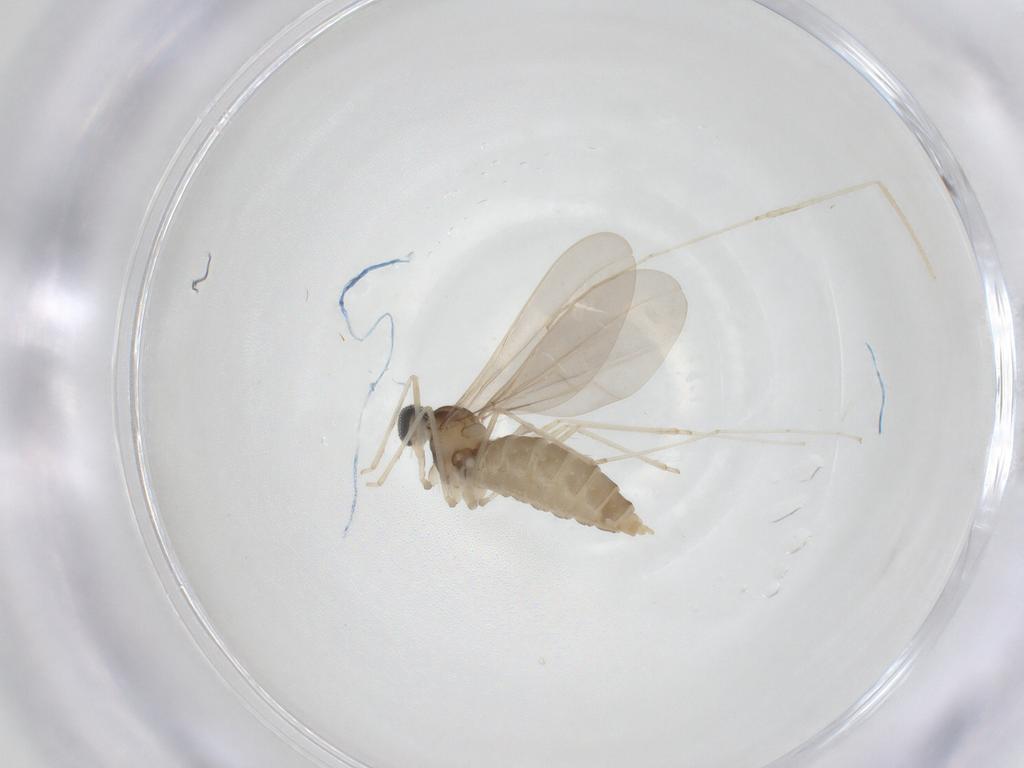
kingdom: Animalia
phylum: Arthropoda
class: Insecta
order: Diptera
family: Cecidomyiidae
